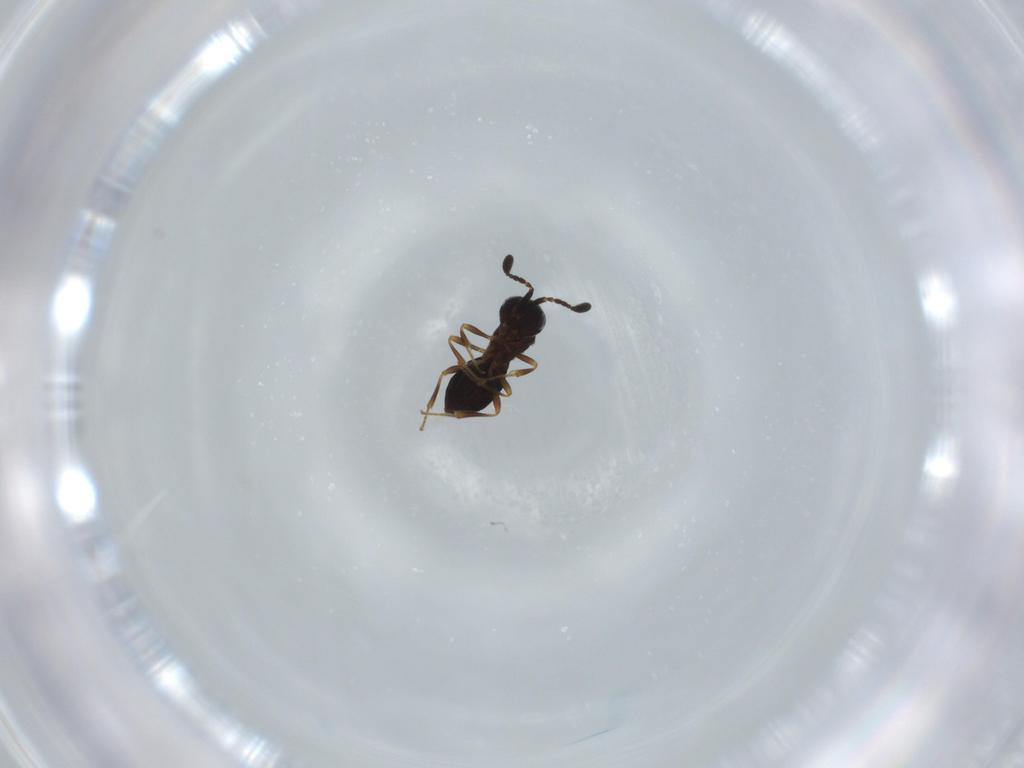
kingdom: Animalia
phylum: Arthropoda
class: Insecta
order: Hymenoptera
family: Scelionidae
